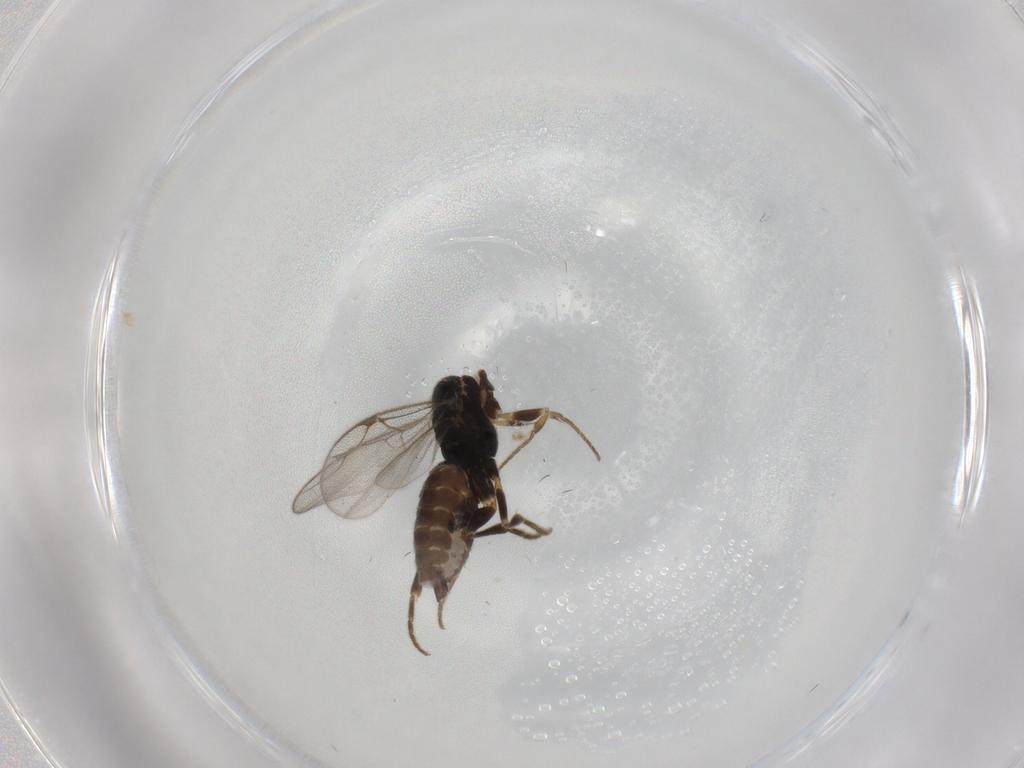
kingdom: Animalia
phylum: Arthropoda
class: Insecta
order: Hymenoptera
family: Dryinidae
